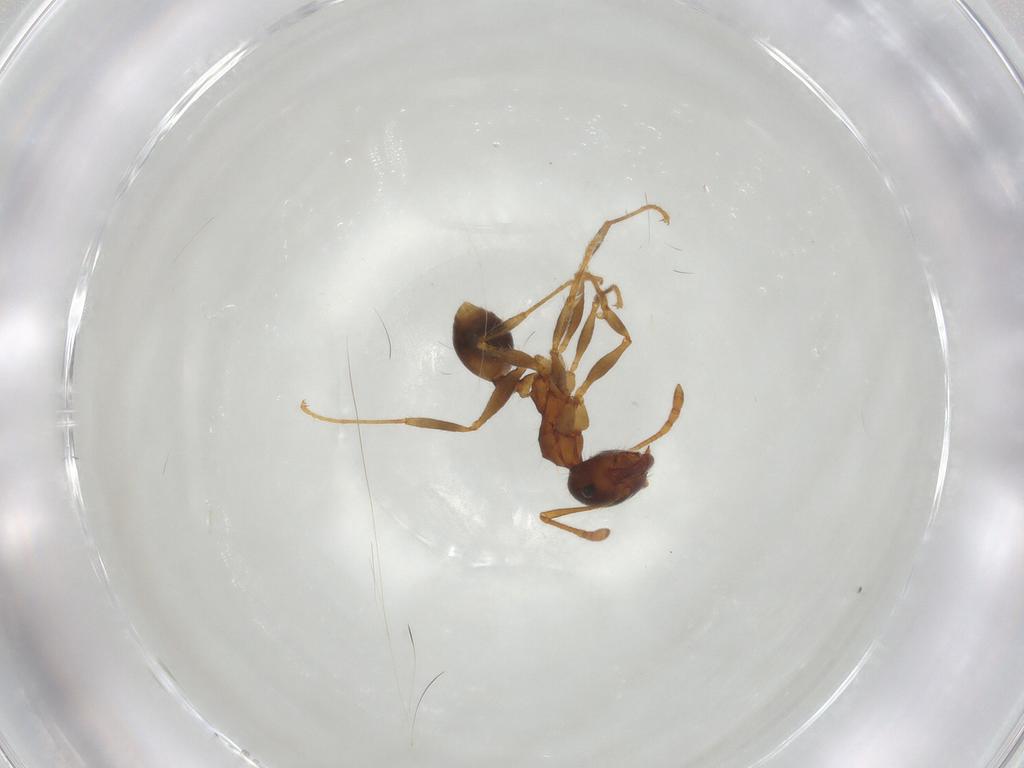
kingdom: Animalia
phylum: Arthropoda
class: Insecta
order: Hymenoptera
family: Formicidae
